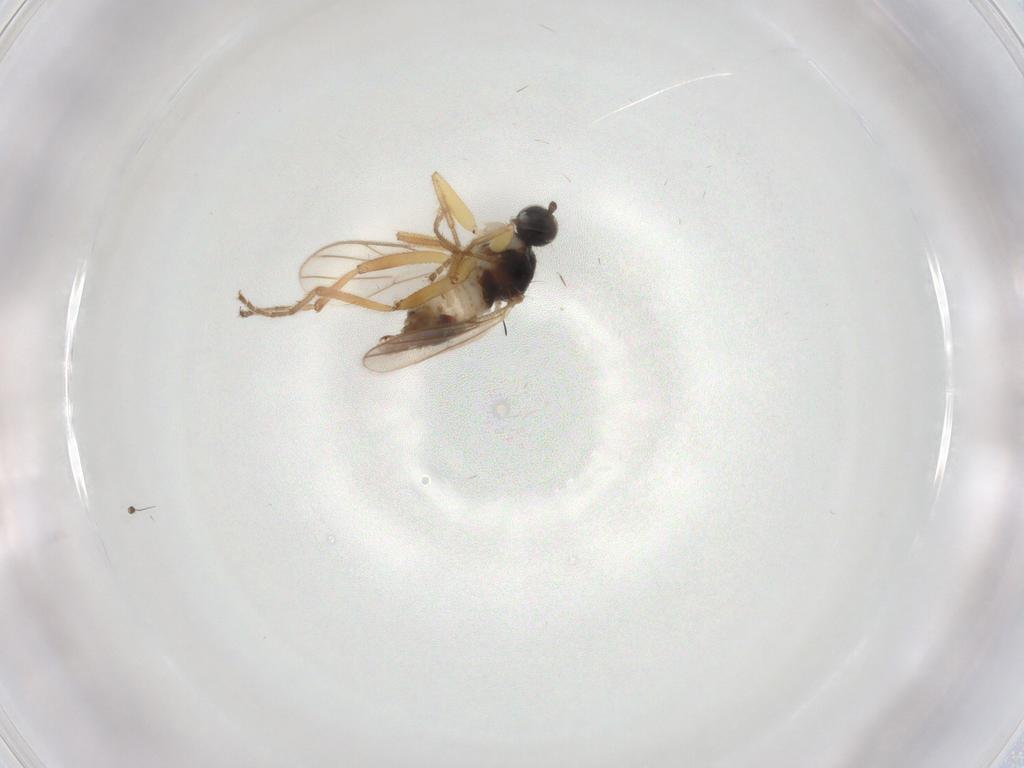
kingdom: Animalia
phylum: Arthropoda
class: Insecta
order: Diptera
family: Hybotidae
